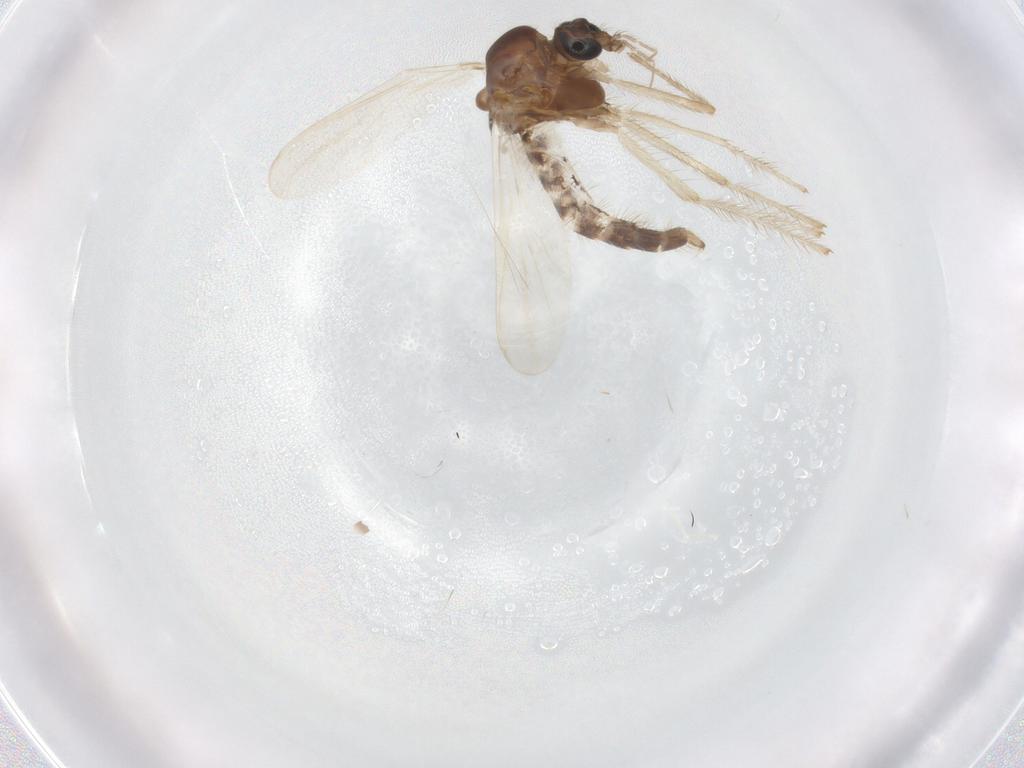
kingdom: Animalia
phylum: Arthropoda
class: Insecta
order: Diptera
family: Chironomidae
